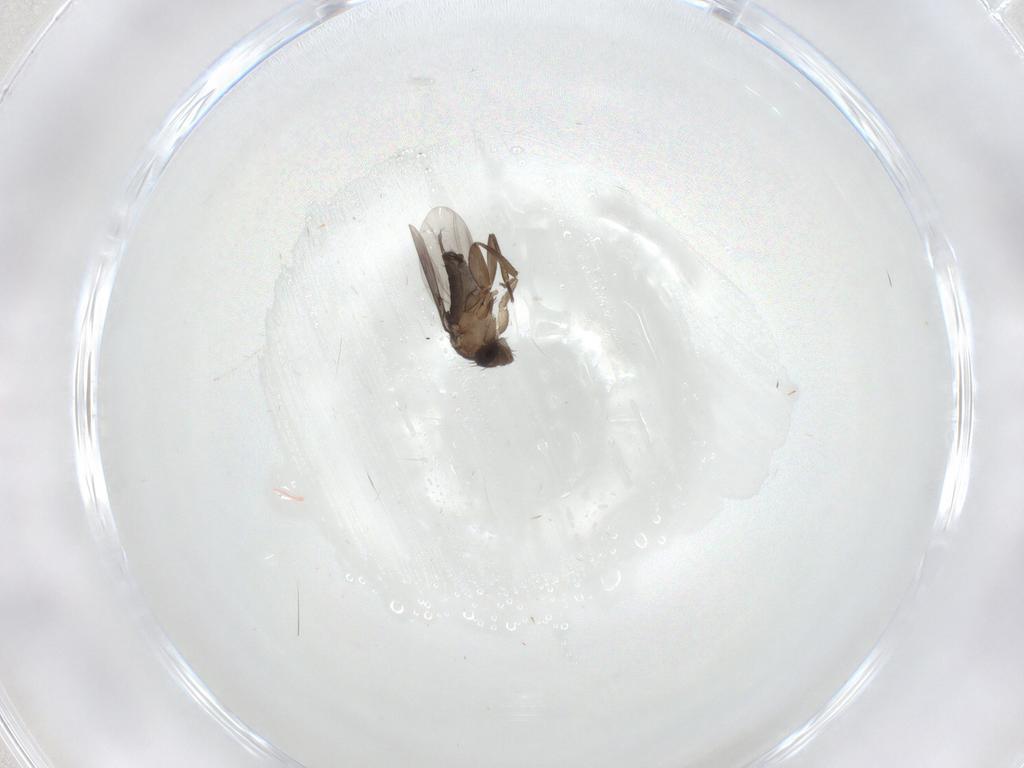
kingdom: Animalia
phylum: Arthropoda
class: Insecta
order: Diptera
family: Phoridae
